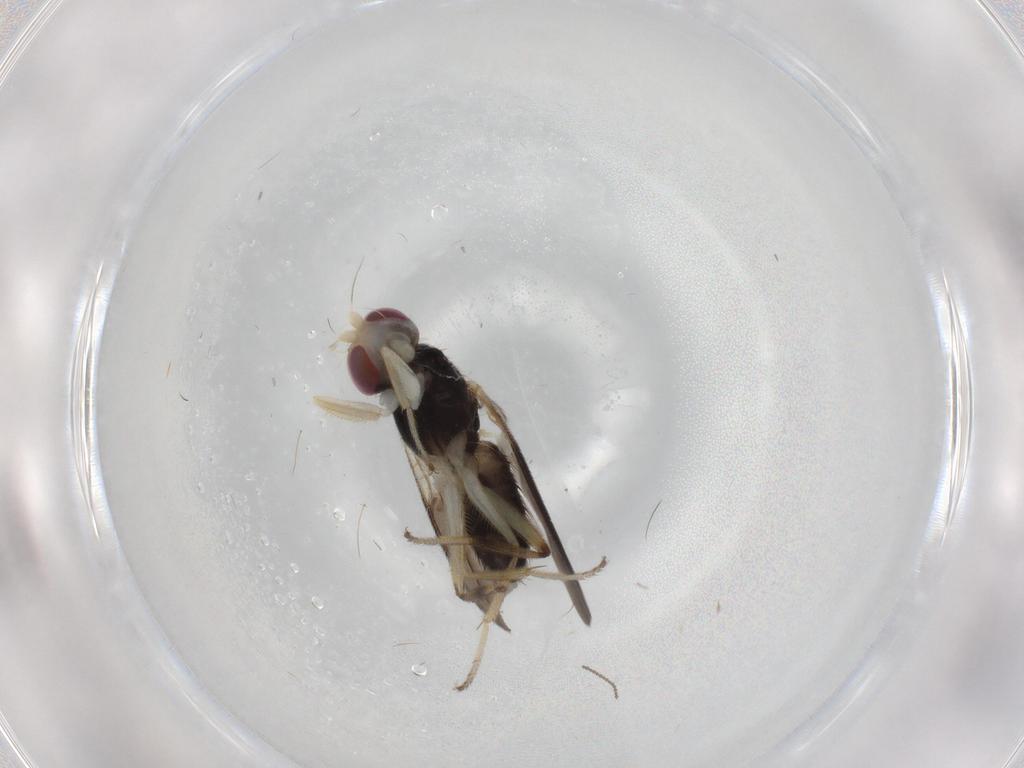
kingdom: Animalia
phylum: Arthropoda
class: Insecta
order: Diptera
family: Clusiidae
